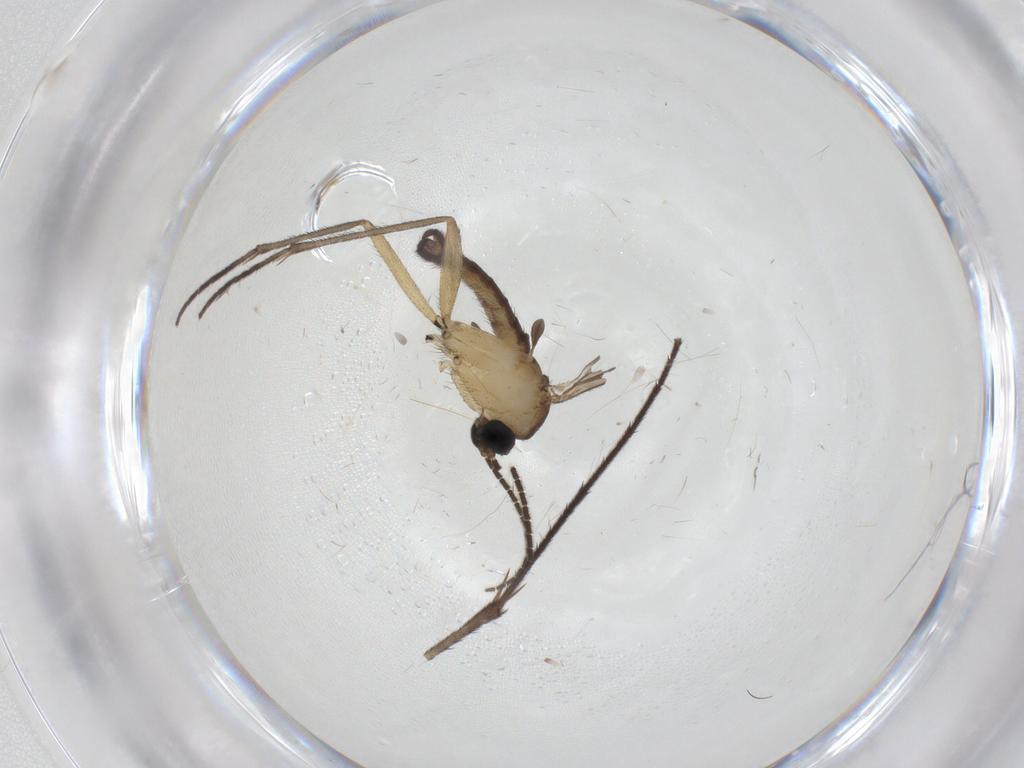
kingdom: Animalia
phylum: Arthropoda
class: Insecta
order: Diptera
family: Sciaridae
